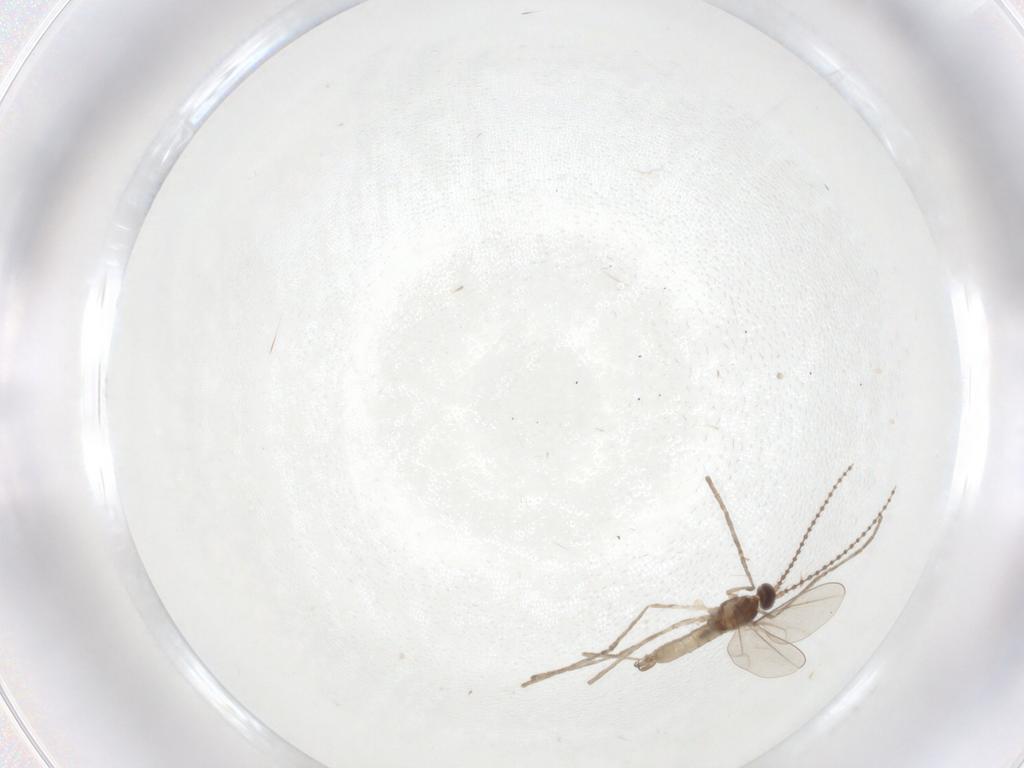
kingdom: Animalia
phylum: Arthropoda
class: Insecta
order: Diptera
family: Cecidomyiidae
